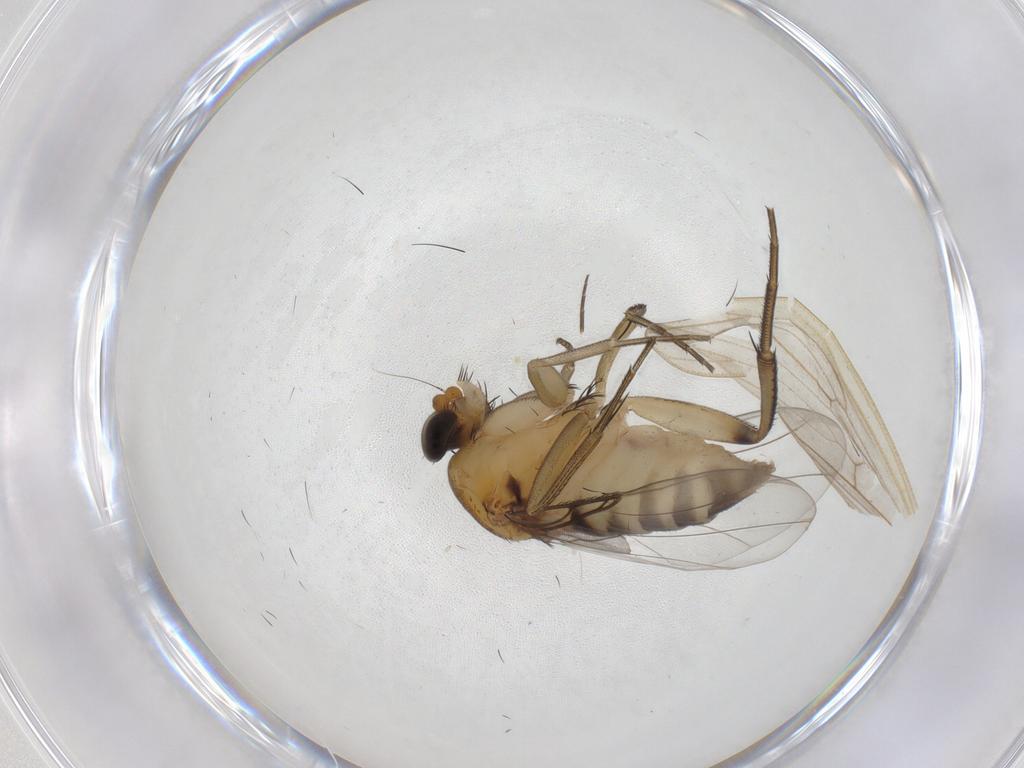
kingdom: Animalia
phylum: Arthropoda
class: Insecta
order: Diptera
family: Phoridae
